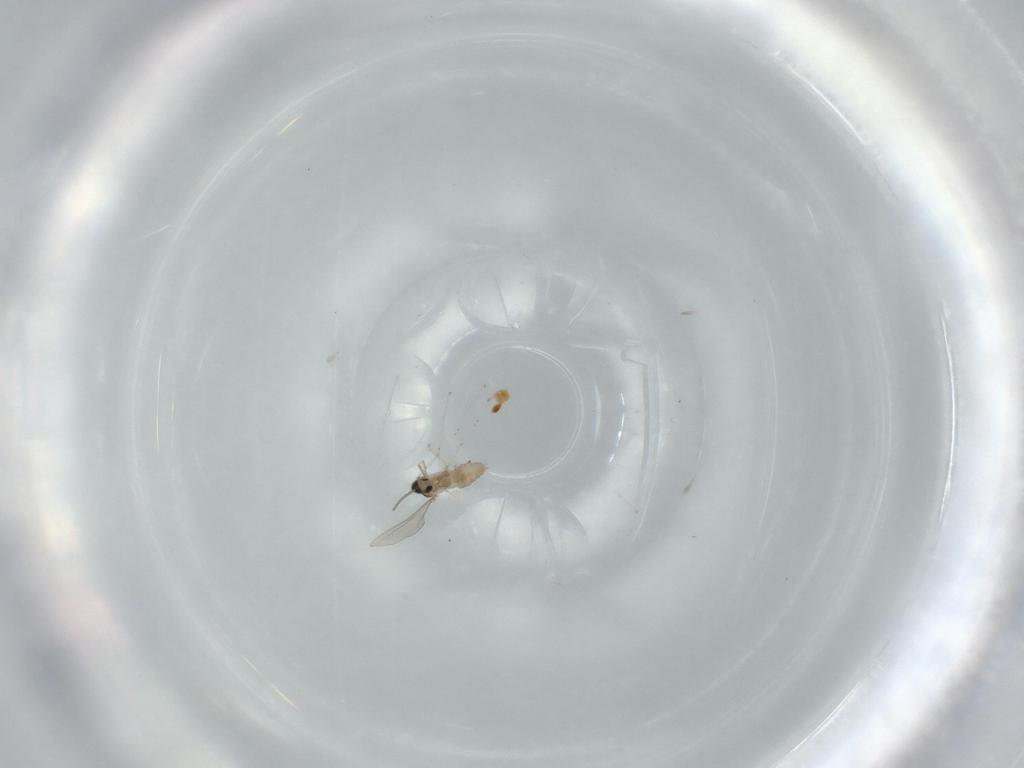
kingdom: Animalia
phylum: Arthropoda
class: Insecta
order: Diptera
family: Cecidomyiidae
